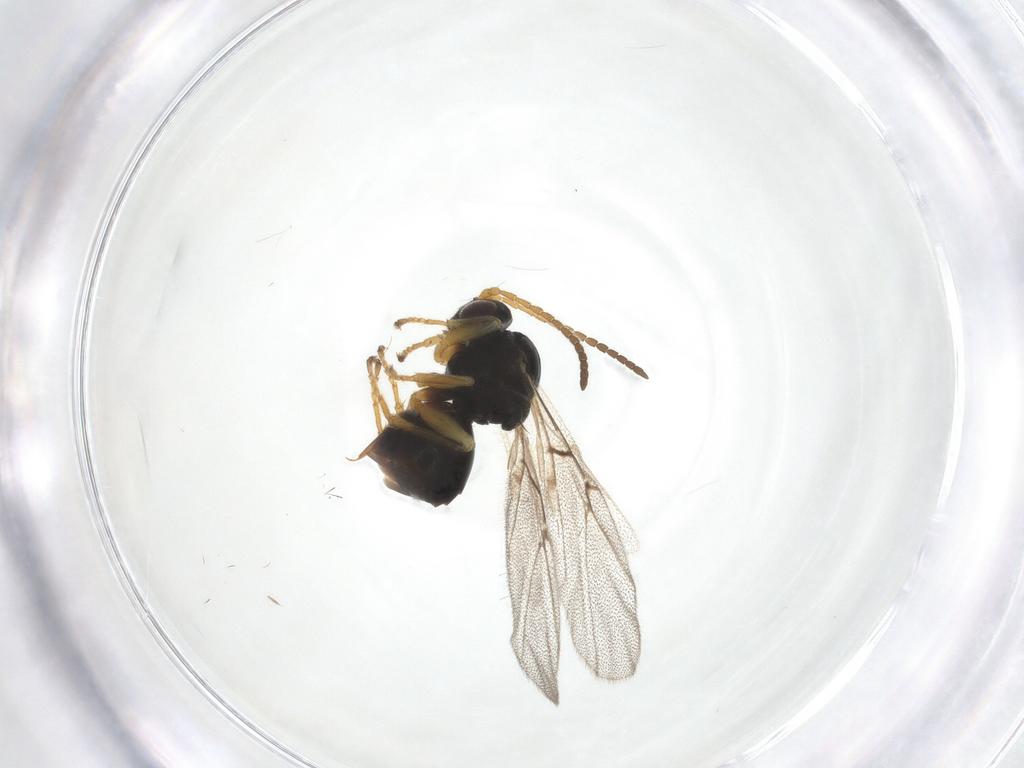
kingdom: Animalia
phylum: Arthropoda
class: Insecta
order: Hymenoptera
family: Cynipidae
